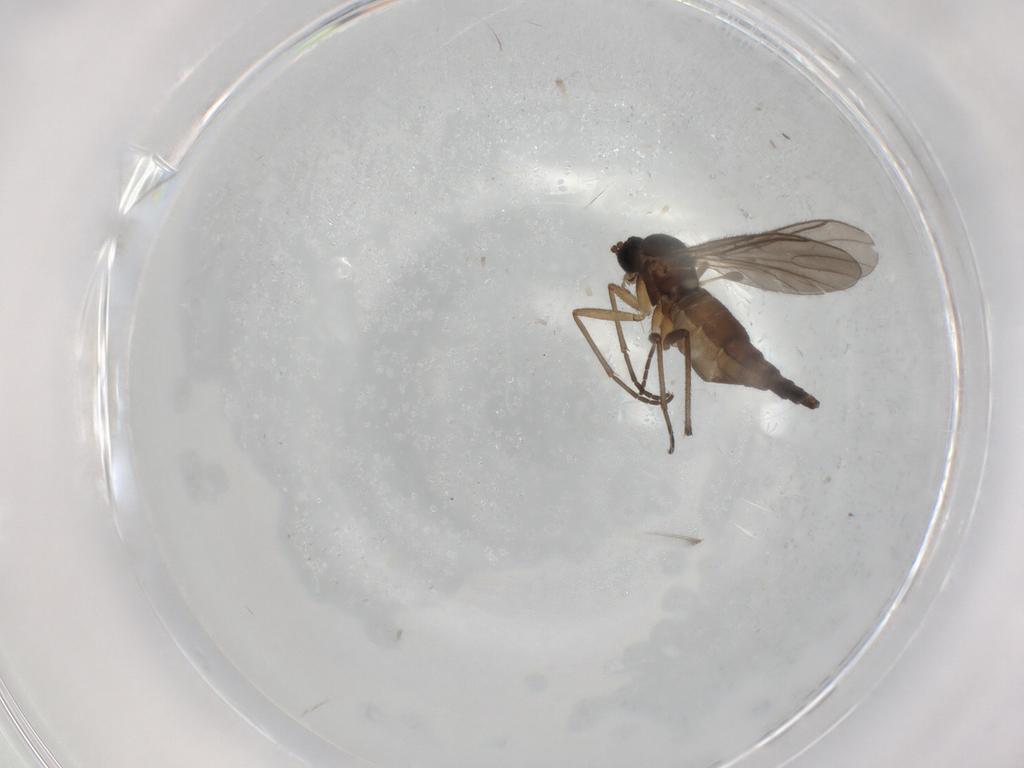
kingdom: Animalia
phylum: Arthropoda
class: Insecta
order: Diptera
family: Sciaridae
